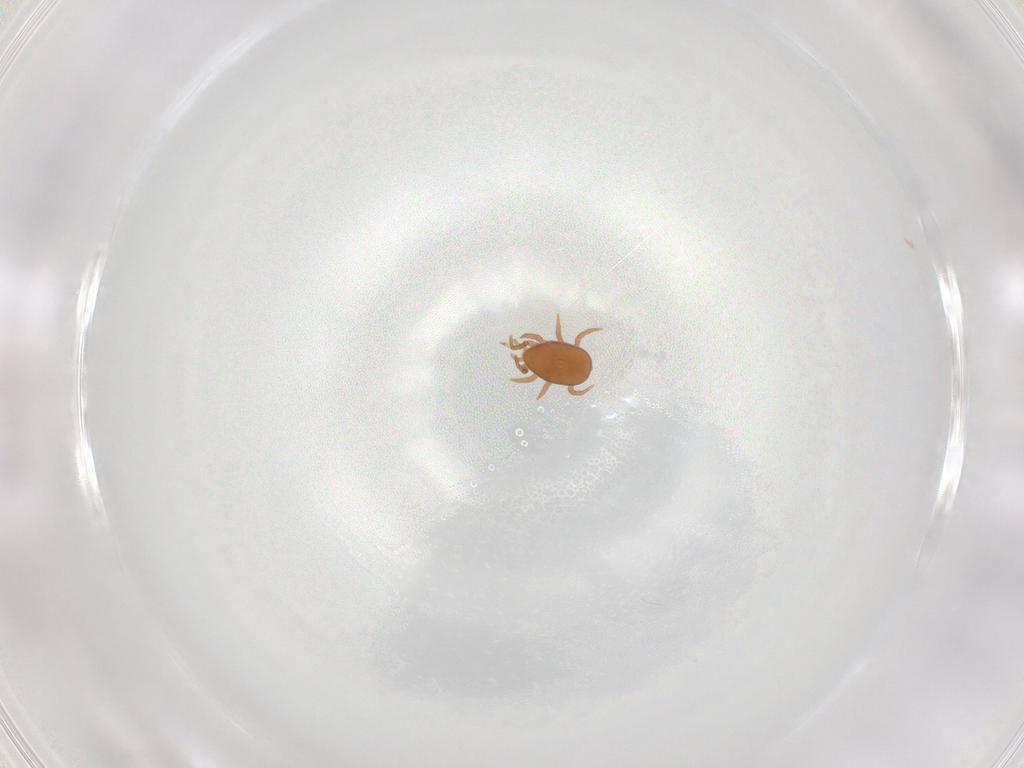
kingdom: Animalia
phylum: Arthropoda
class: Arachnida
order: Mesostigmata
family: Eviphididae
